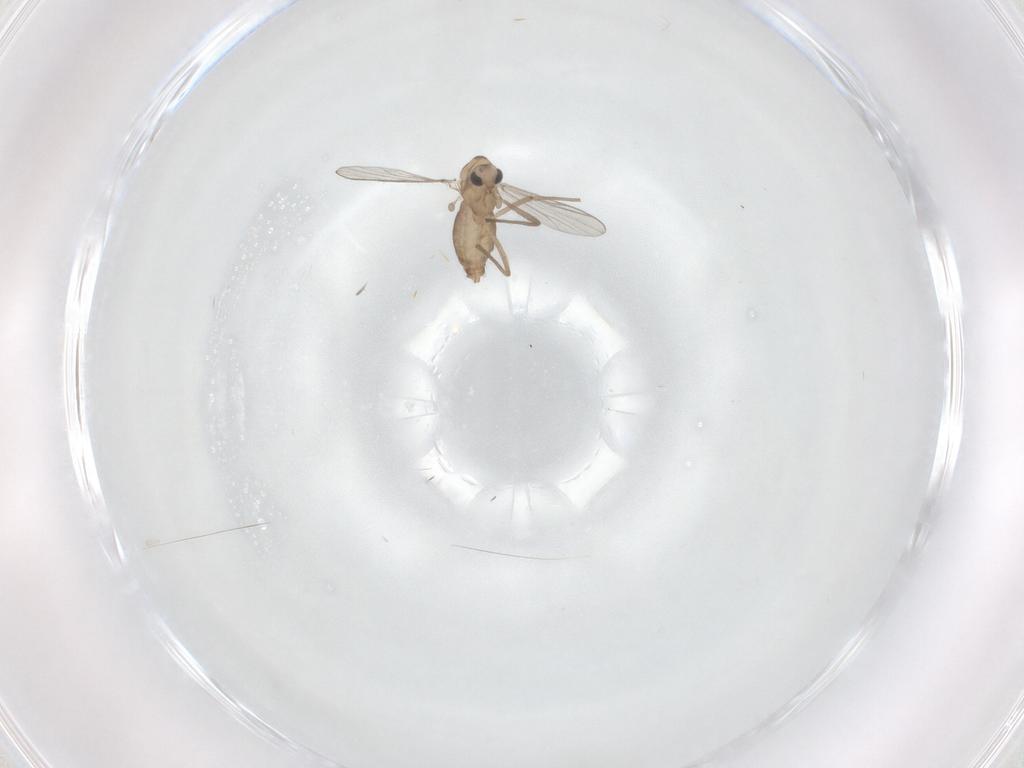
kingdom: Animalia
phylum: Arthropoda
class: Insecta
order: Diptera
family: Chironomidae
